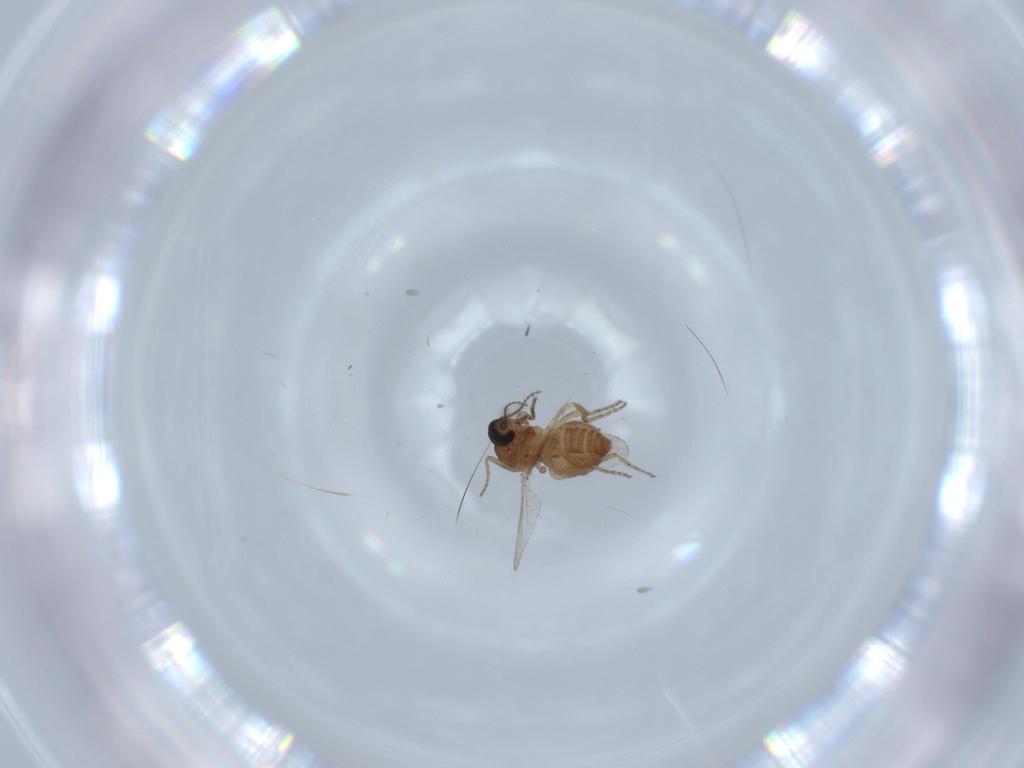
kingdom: Animalia
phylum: Arthropoda
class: Insecta
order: Diptera
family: Ceratopogonidae
